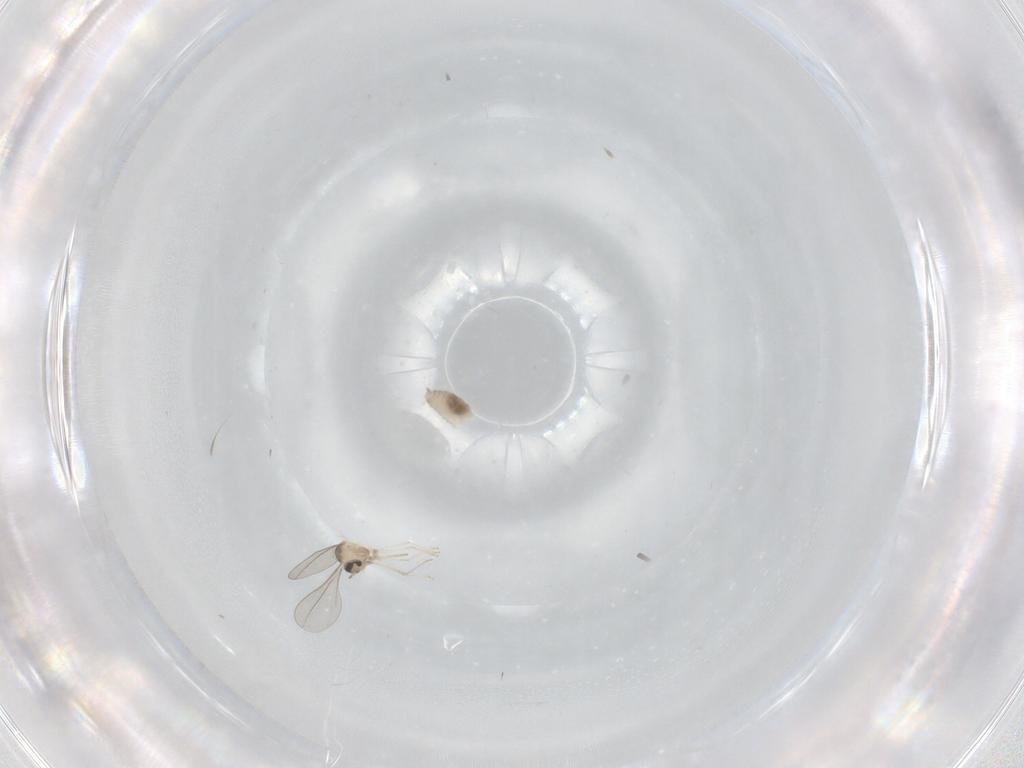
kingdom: Animalia
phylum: Arthropoda
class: Insecta
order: Diptera
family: Cecidomyiidae
